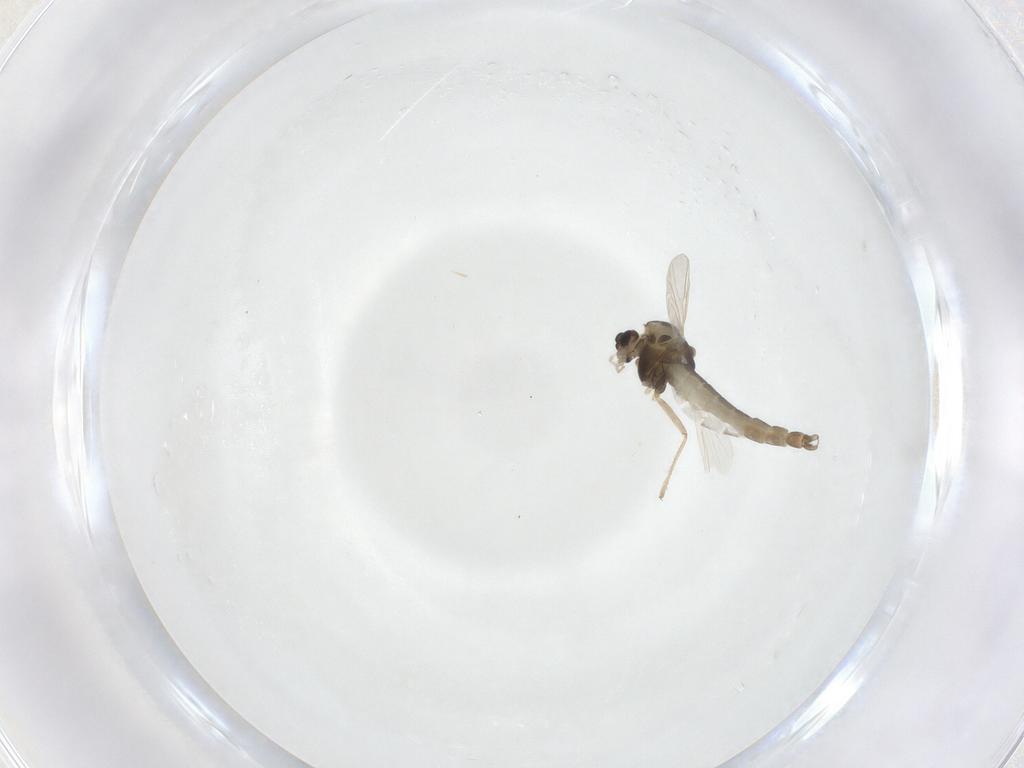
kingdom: Animalia
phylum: Arthropoda
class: Insecta
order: Diptera
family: Chironomidae
